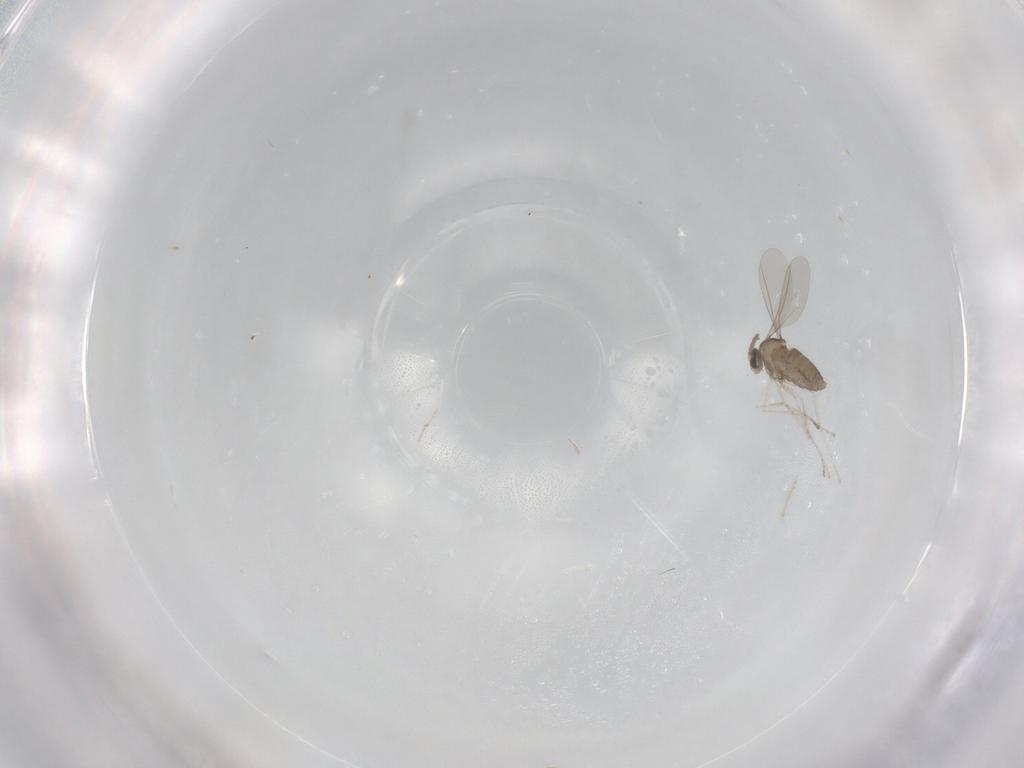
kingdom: Animalia
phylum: Arthropoda
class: Insecta
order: Diptera
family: Cecidomyiidae
